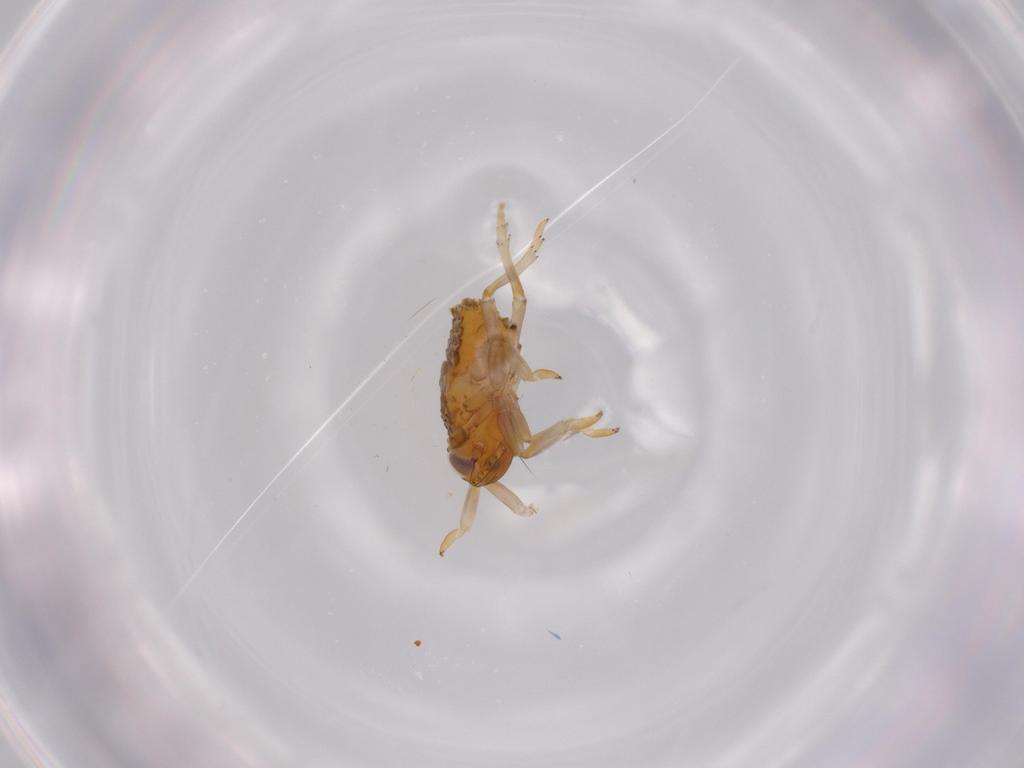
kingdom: Animalia
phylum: Arthropoda
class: Insecta
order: Hemiptera
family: Issidae
